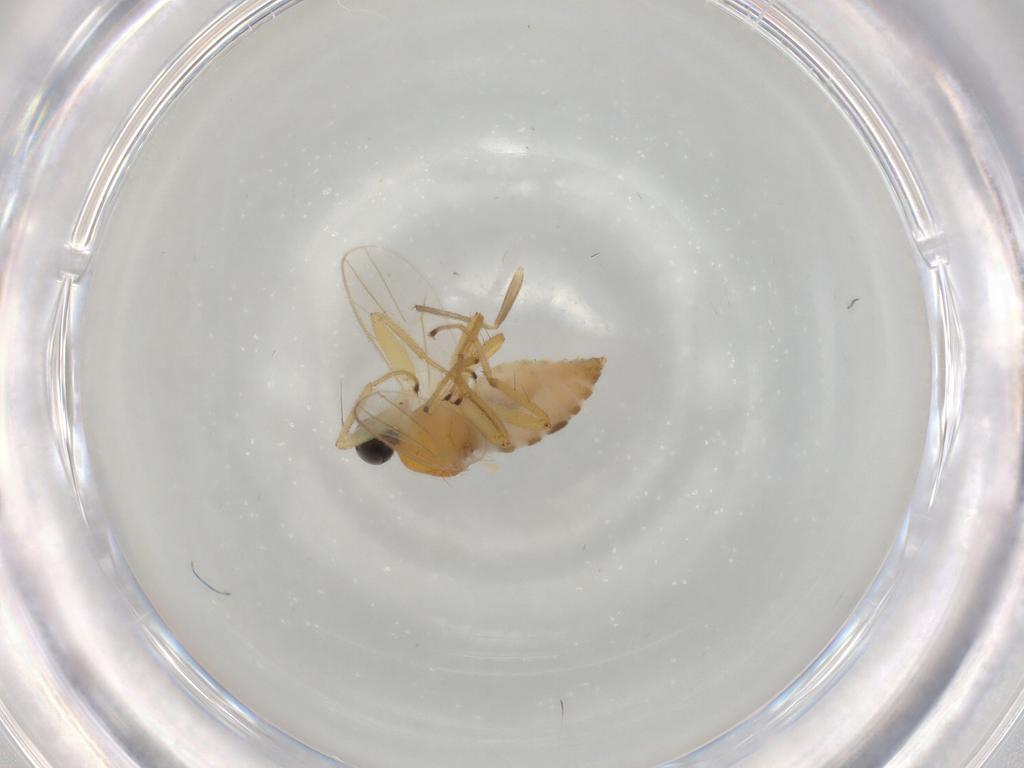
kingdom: Animalia
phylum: Arthropoda
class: Insecta
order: Diptera
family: Hybotidae
